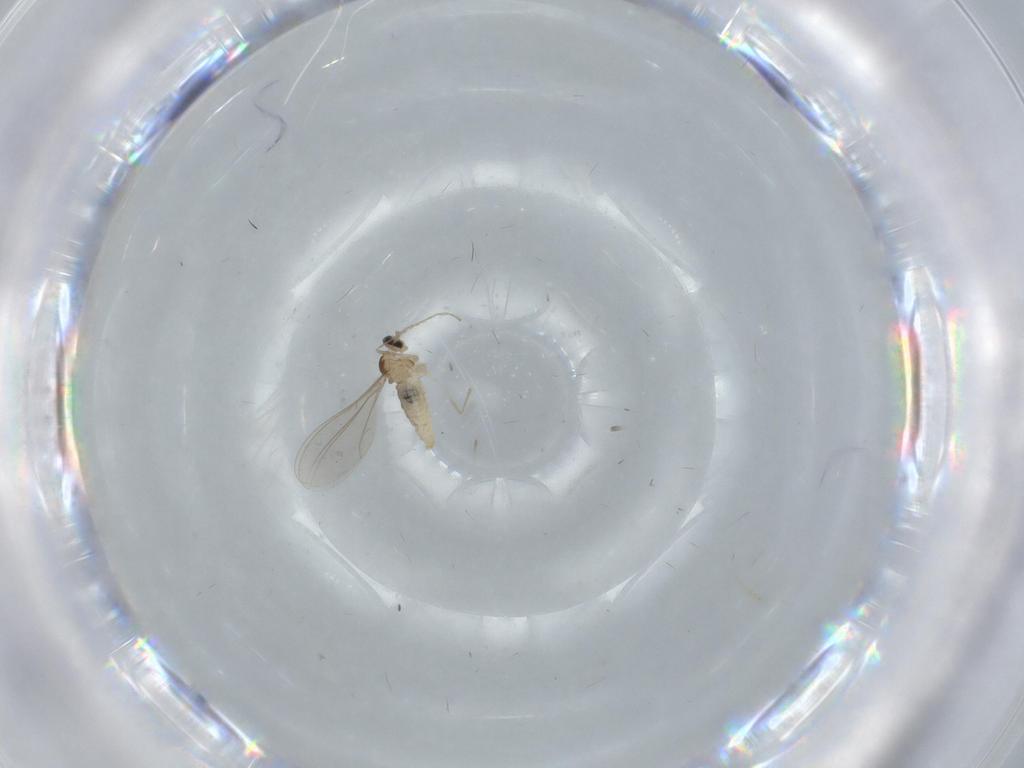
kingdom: Animalia
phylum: Arthropoda
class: Insecta
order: Diptera
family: Cecidomyiidae
